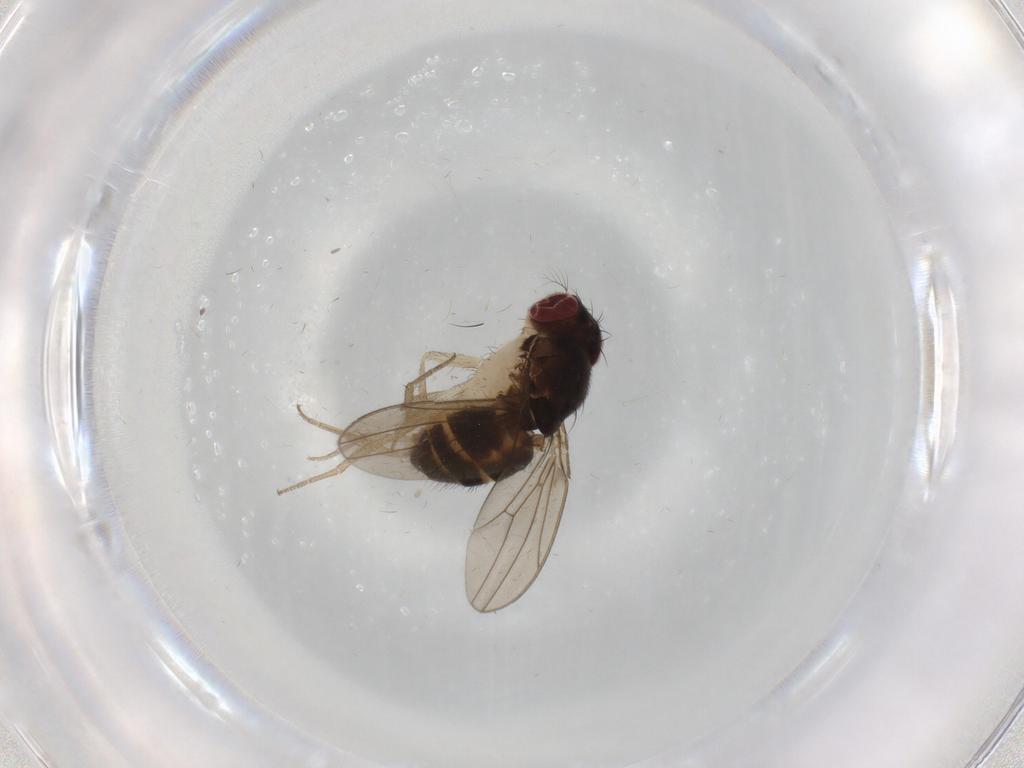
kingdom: Animalia
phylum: Arthropoda
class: Insecta
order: Diptera
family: Drosophilidae
